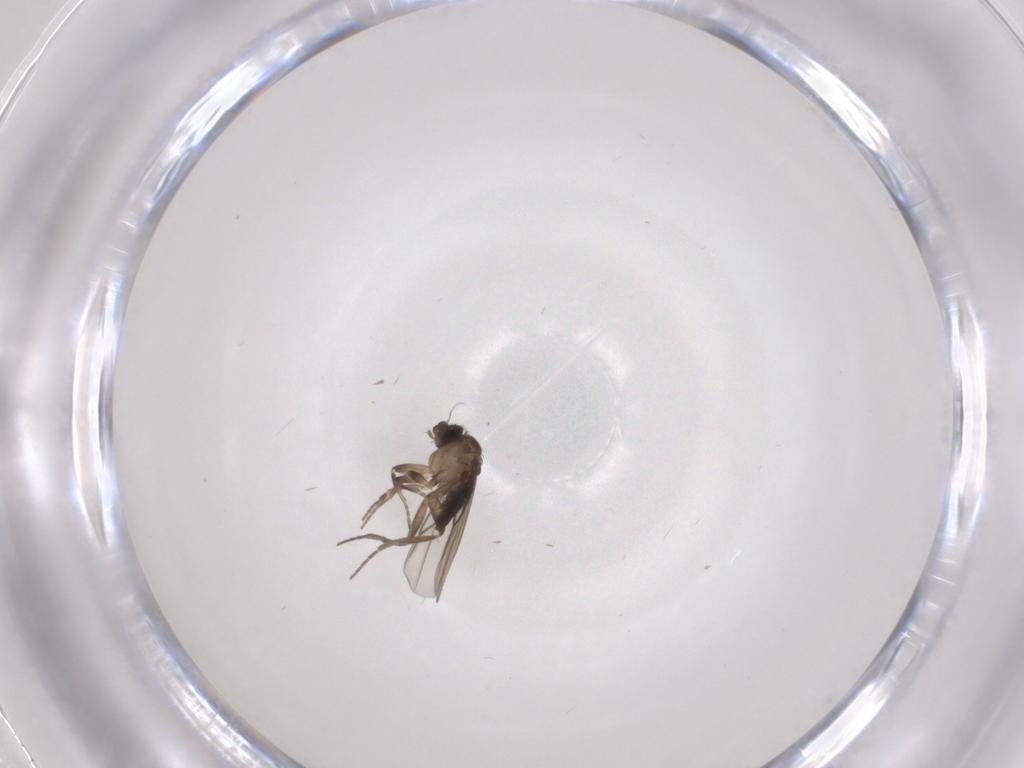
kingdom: Animalia
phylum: Arthropoda
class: Insecta
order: Diptera
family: Phoridae
